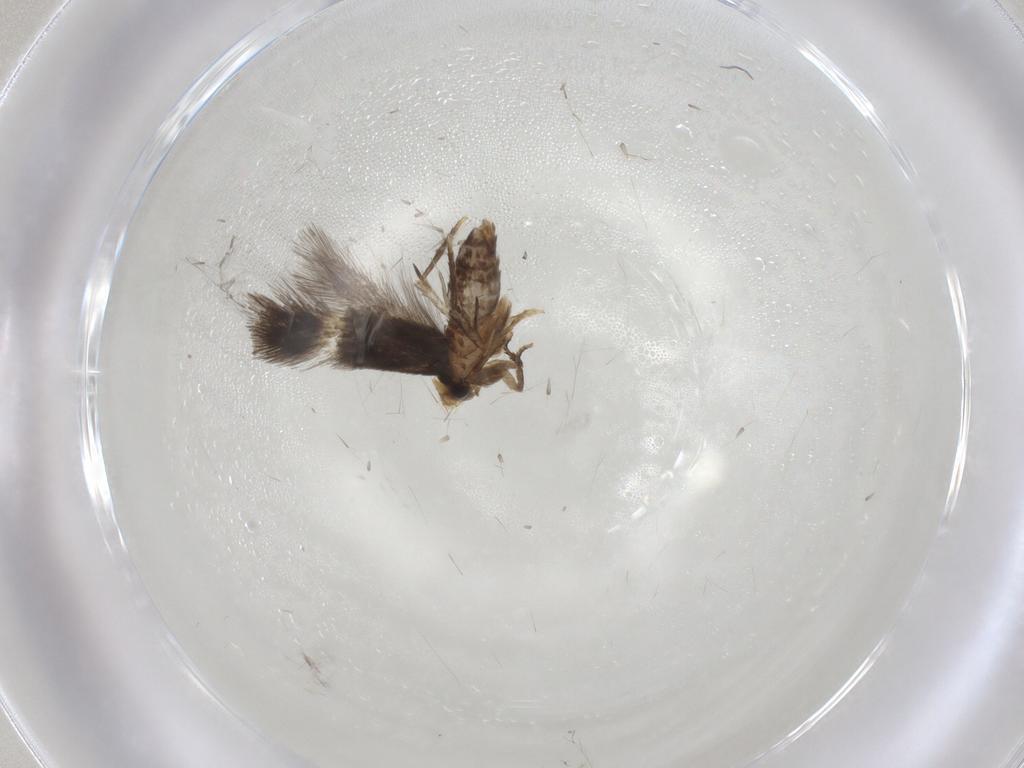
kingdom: Animalia
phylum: Arthropoda
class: Insecta
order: Lepidoptera
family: Nepticulidae
